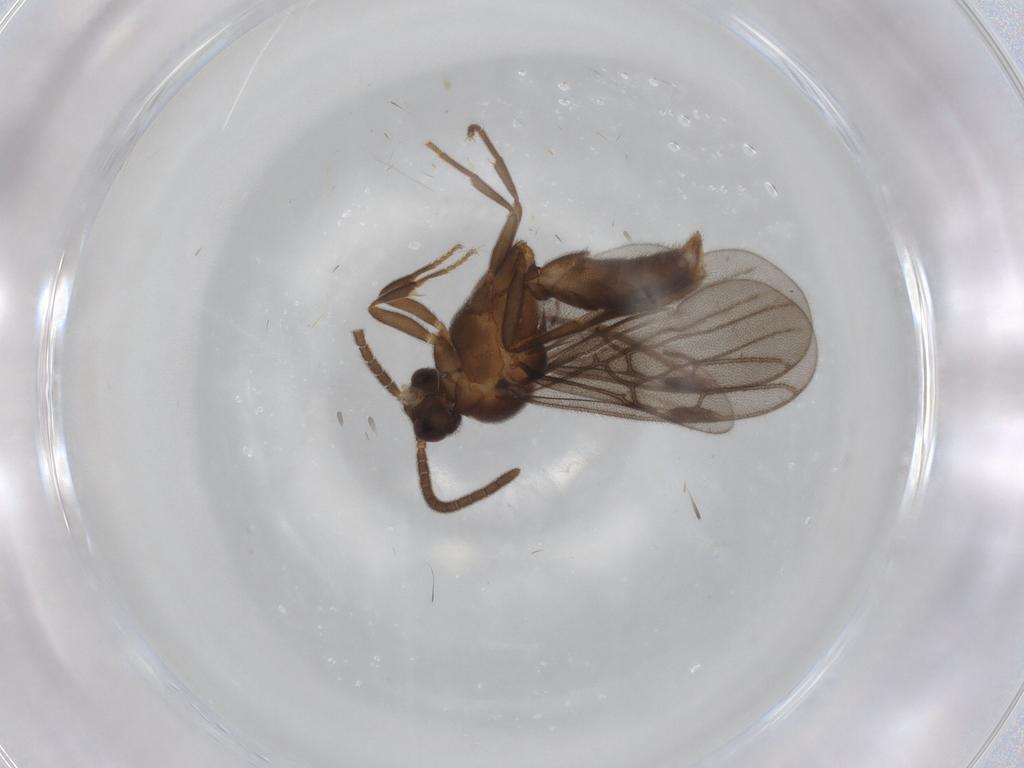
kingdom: Animalia
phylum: Arthropoda
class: Insecta
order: Hymenoptera
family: Formicidae
